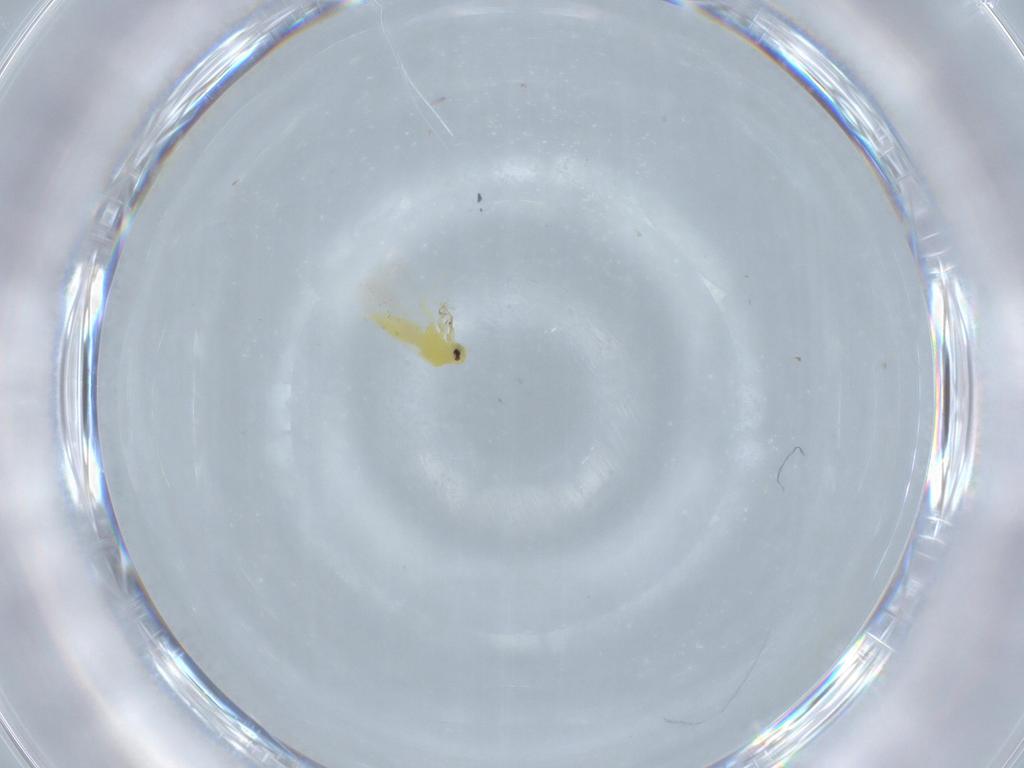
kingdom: Animalia
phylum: Arthropoda
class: Insecta
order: Hemiptera
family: Aleyrodidae
